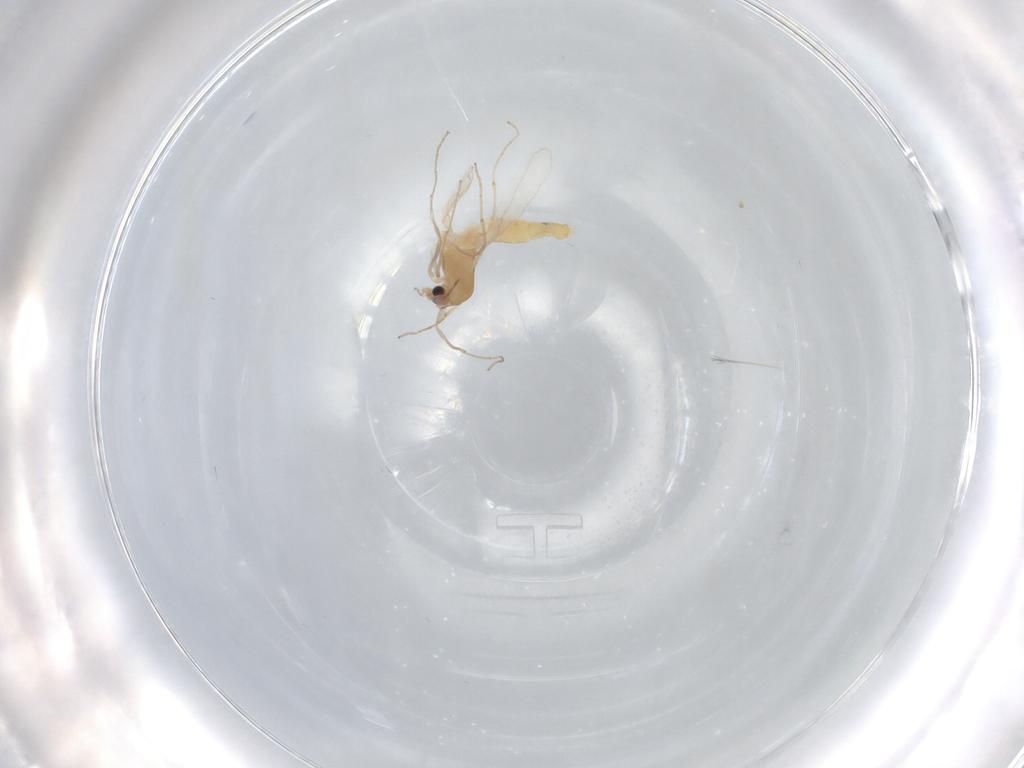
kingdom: Animalia
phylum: Arthropoda
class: Insecta
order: Diptera
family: Chironomidae
